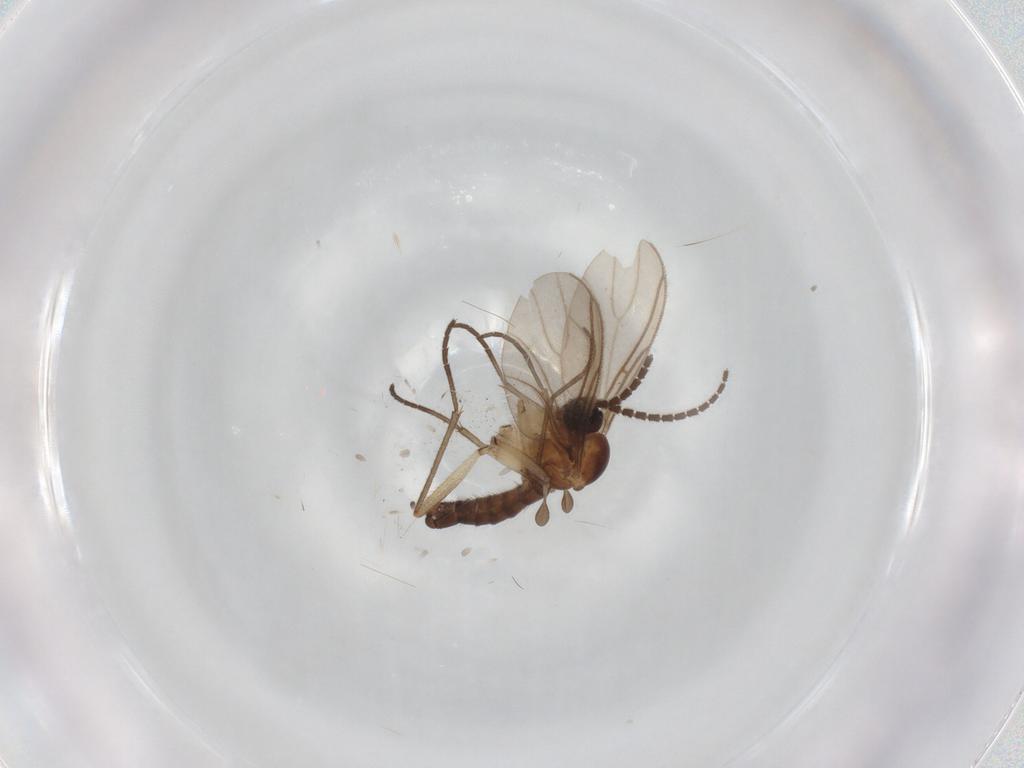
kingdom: Animalia
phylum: Arthropoda
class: Insecta
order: Diptera
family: Sciaridae
